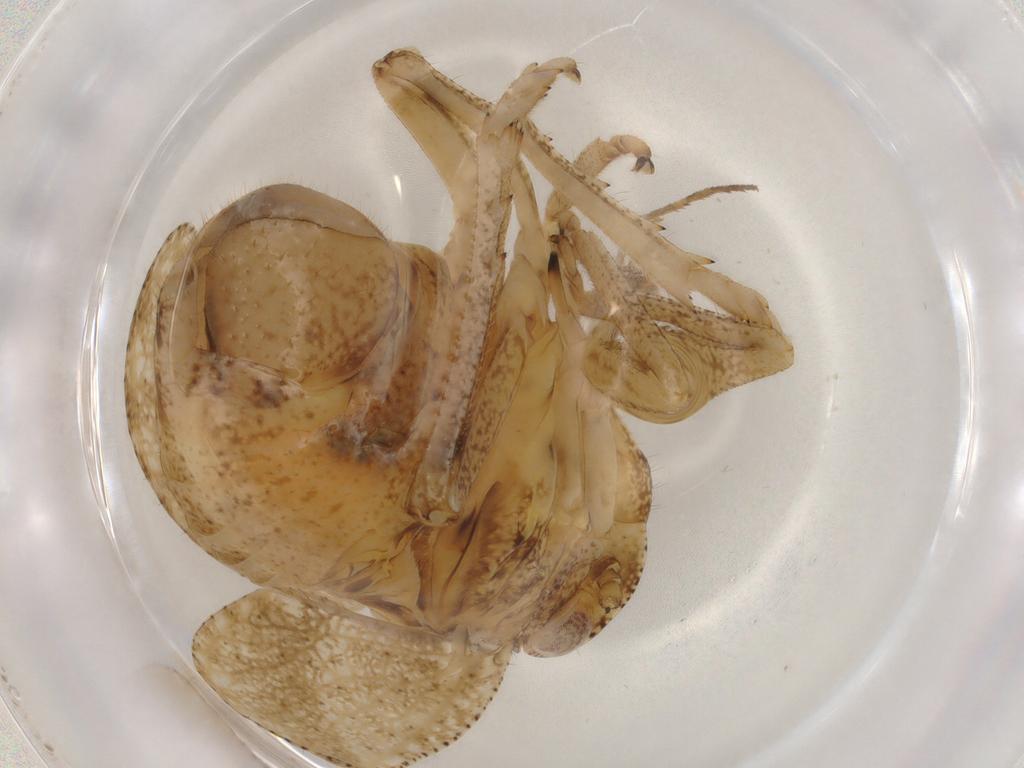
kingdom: Animalia
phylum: Arthropoda
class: Insecta
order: Hemiptera
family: Tropiduchidae
